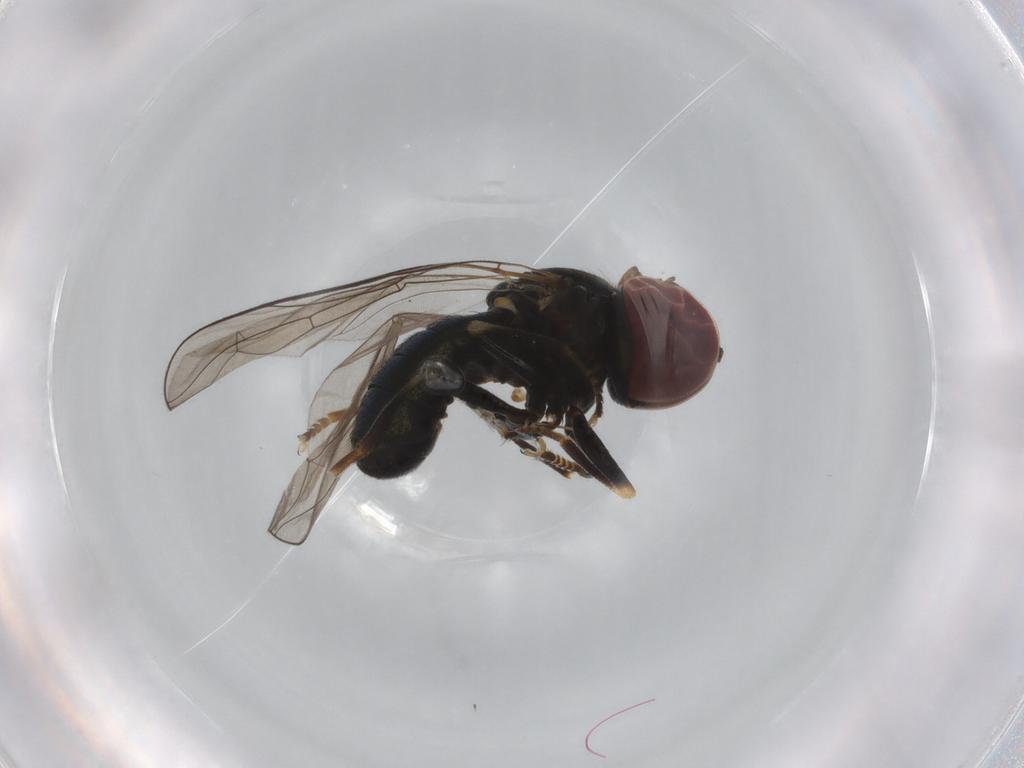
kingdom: Animalia
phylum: Arthropoda
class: Insecta
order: Diptera
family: Pipunculidae
